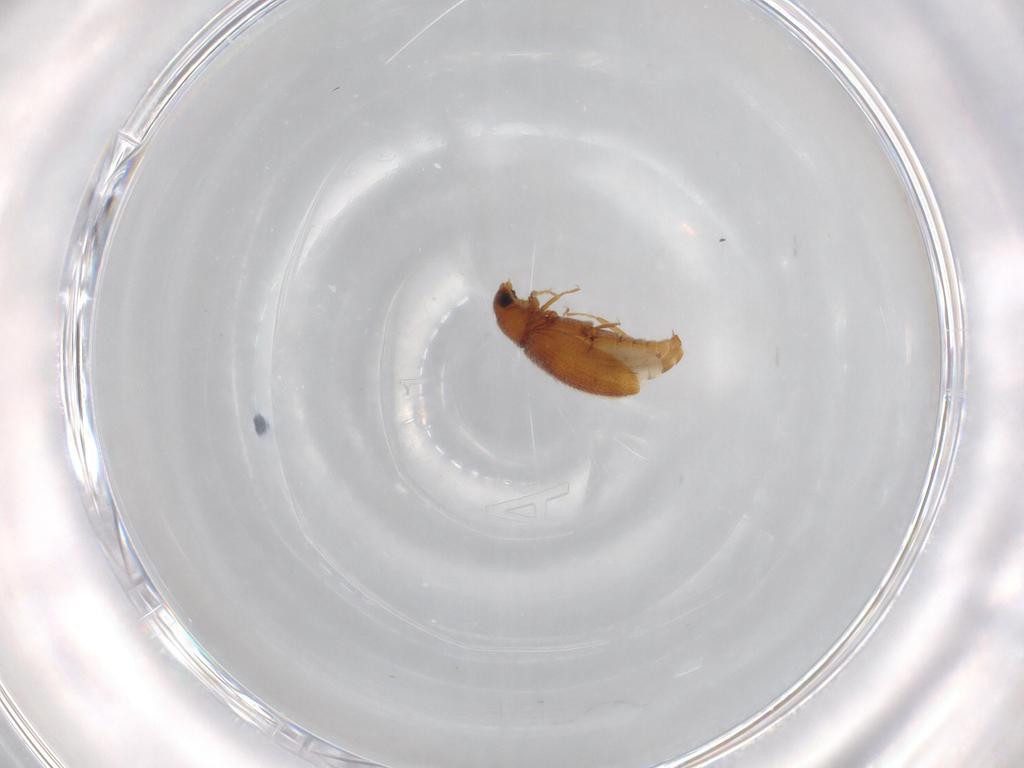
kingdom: Animalia
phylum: Arthropoda
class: Insecta
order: Coleoptera
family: Latridiidae
